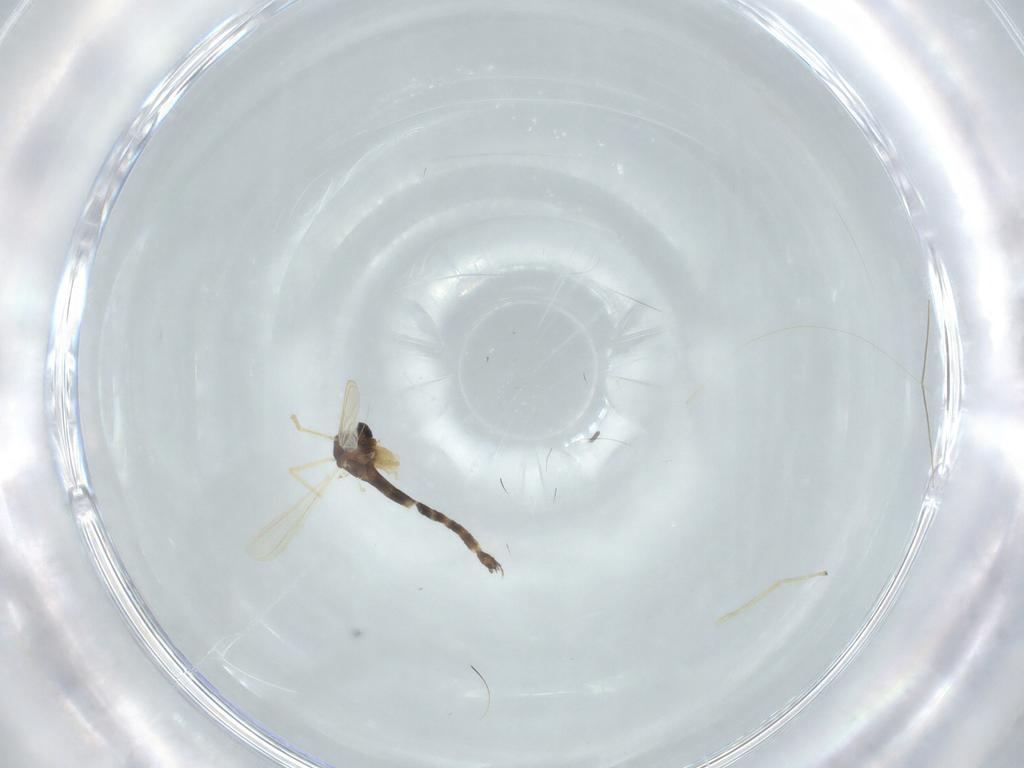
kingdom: Animalia
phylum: Arthropoda
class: Insecta
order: Diptera
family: Chironomidae
